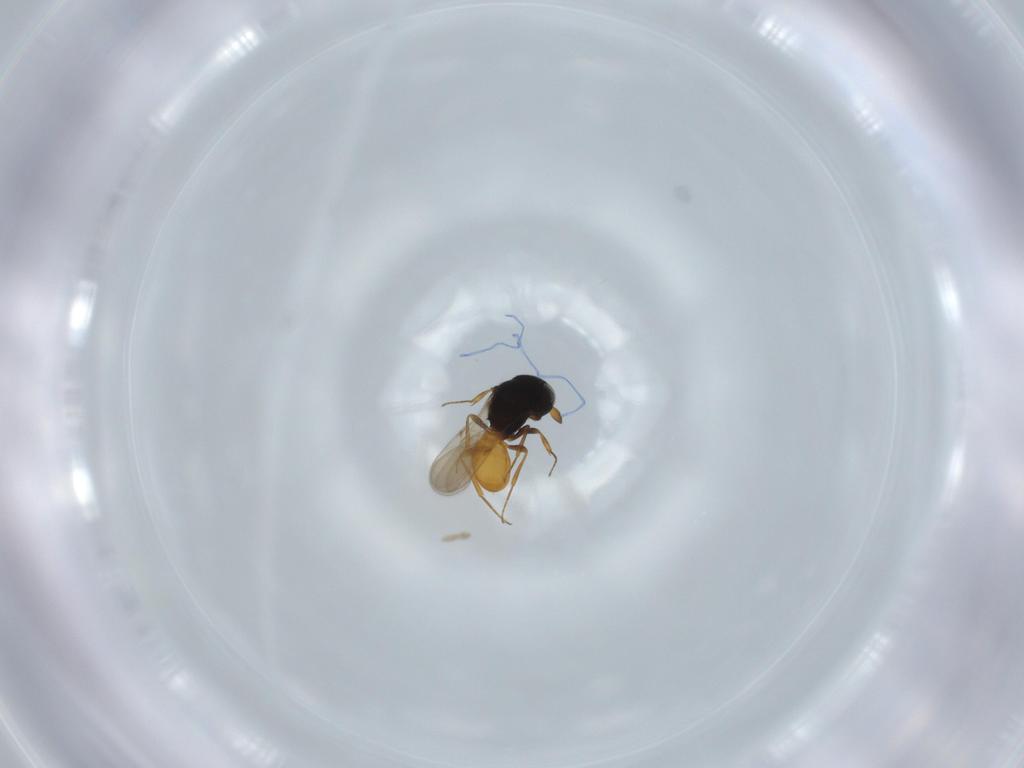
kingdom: Animalia
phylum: Arthropoda
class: Insecta
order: Hymenoptera
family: Scelionidae
